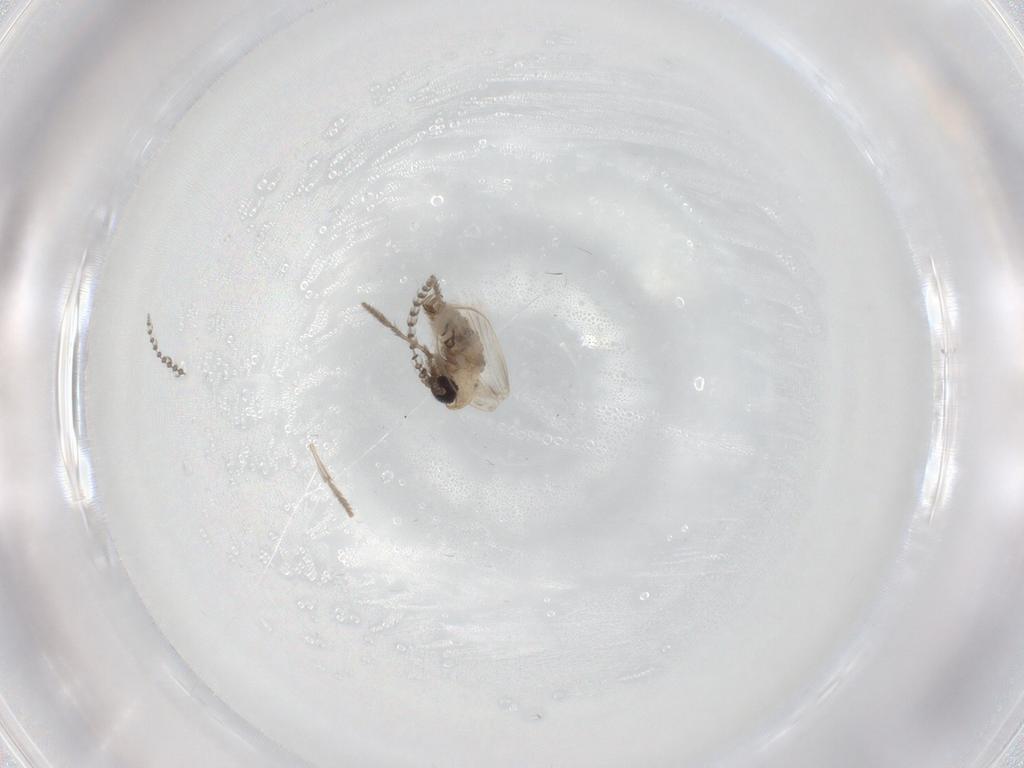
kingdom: Animalia
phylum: Arthropoda
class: Insecta
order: Diptera
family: Psychodidae
